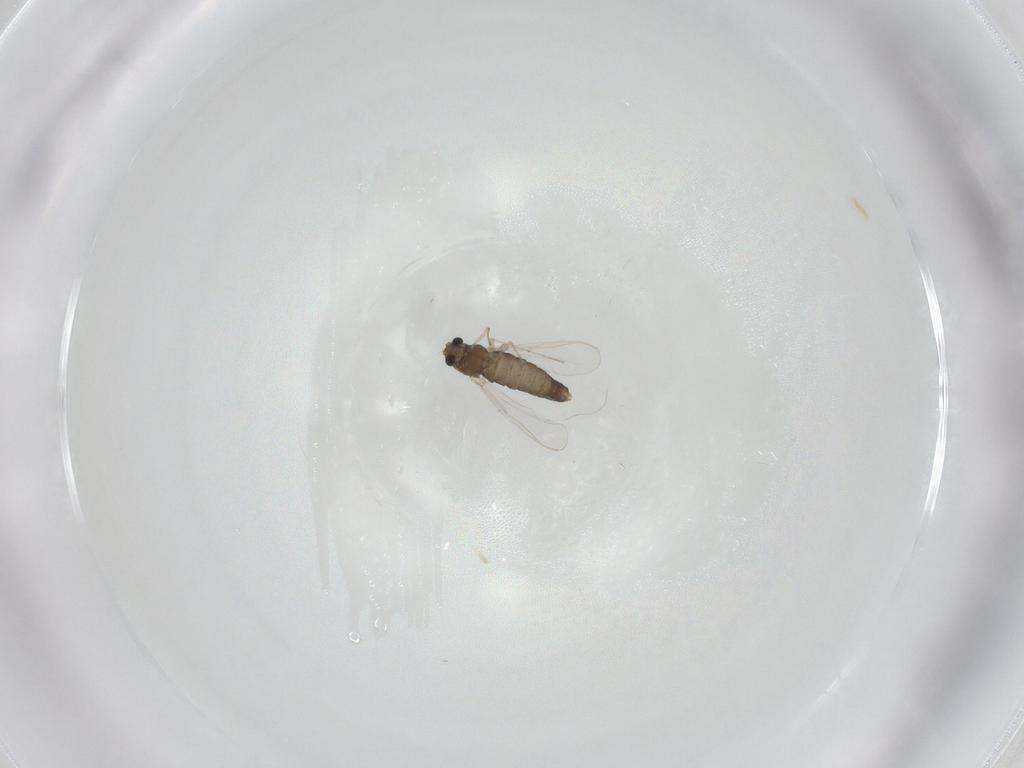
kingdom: Animalia
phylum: Arthropoda
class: Insecta
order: Diptera
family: Chironomidae
